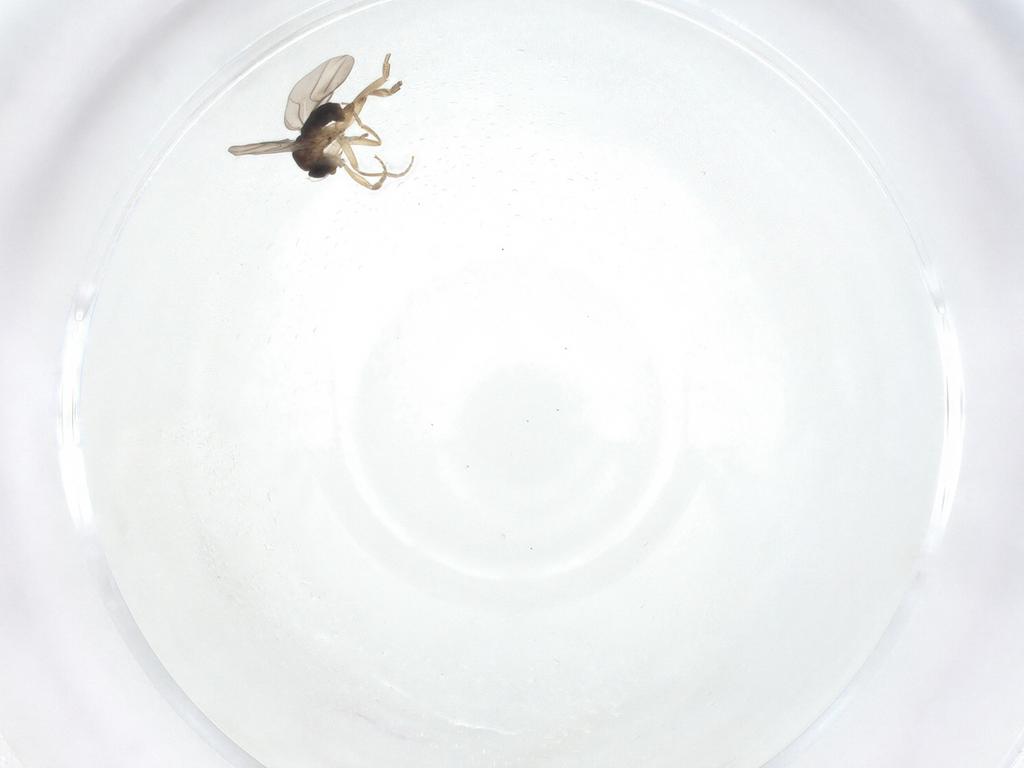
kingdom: Animalia
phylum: Arthropoda
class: Insecta
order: Diptera
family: Phoridae
